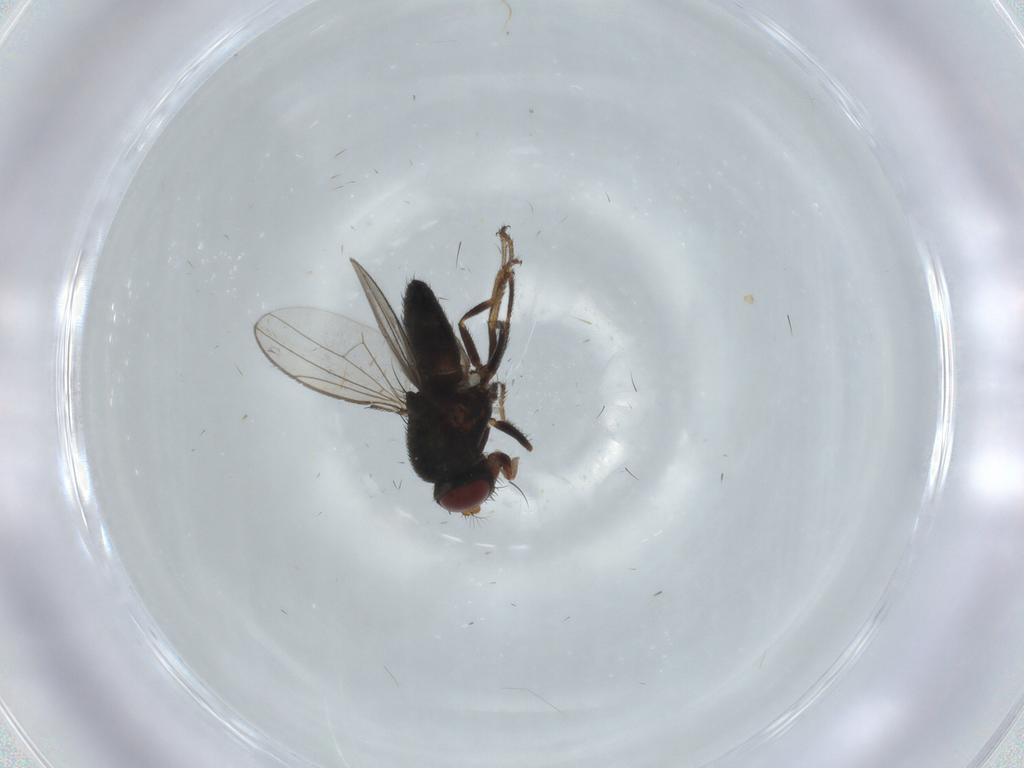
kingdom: Animalia
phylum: Arthropoda
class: Insecta
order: Diptera
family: Ephydridae
